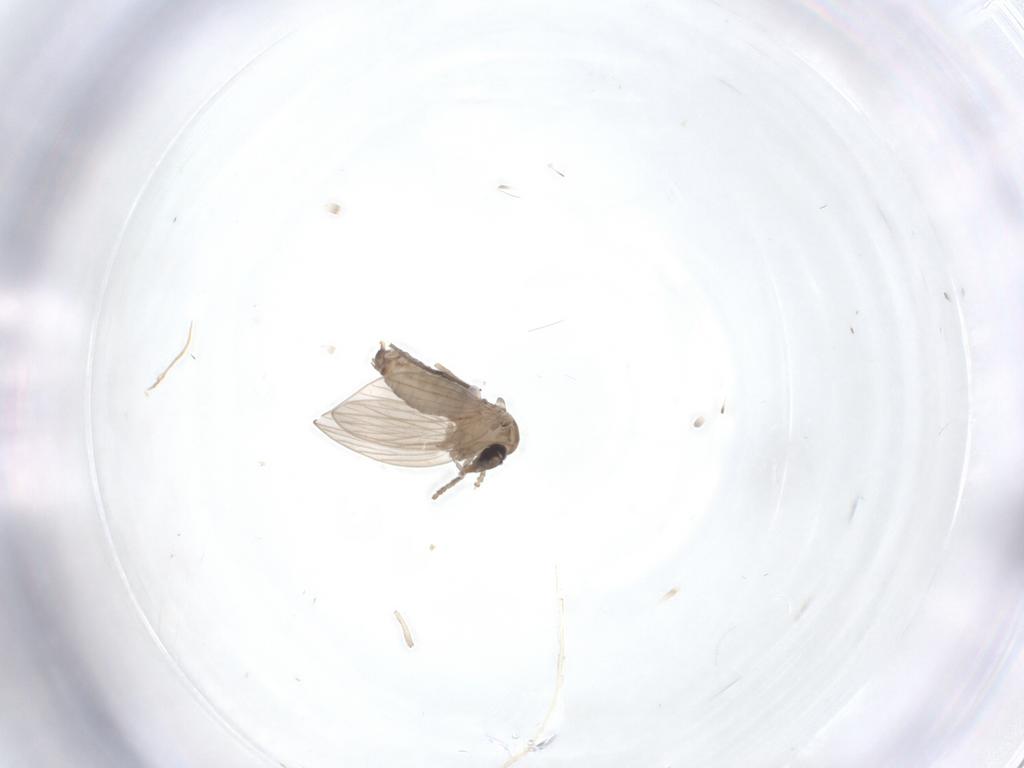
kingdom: Animalia
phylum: Arthropoda
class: Insecta
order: Diptera
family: Psychodidae
